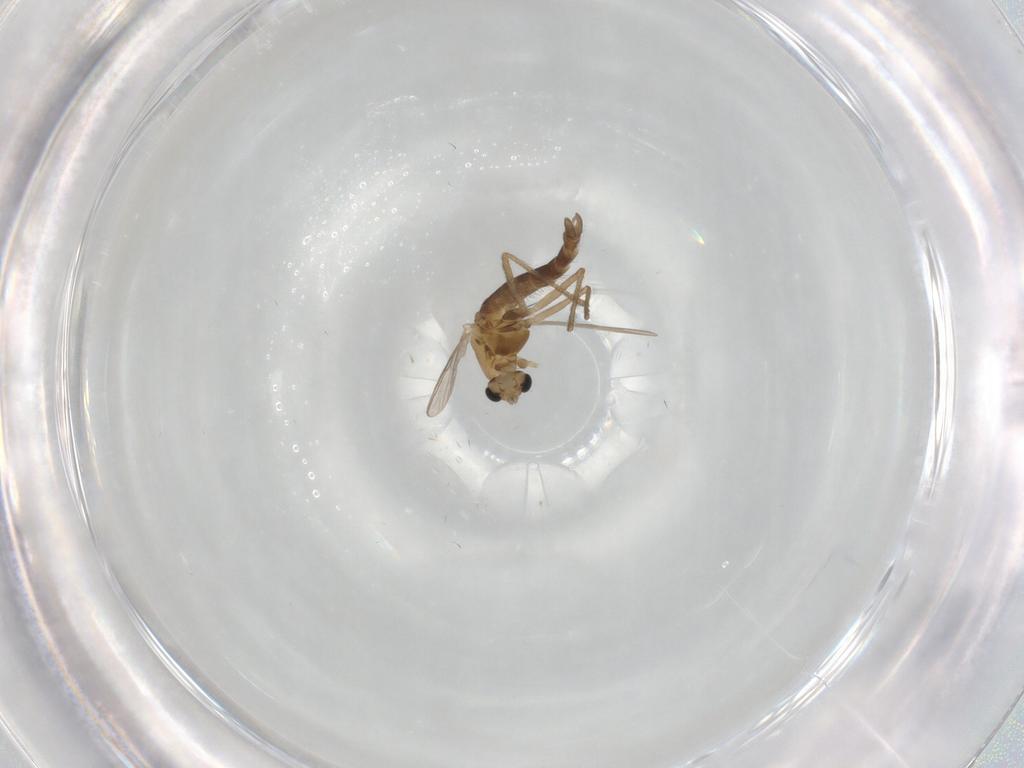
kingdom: Animalia
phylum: Arthropoda
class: Insecta
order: Diptera
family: Chironomidae
